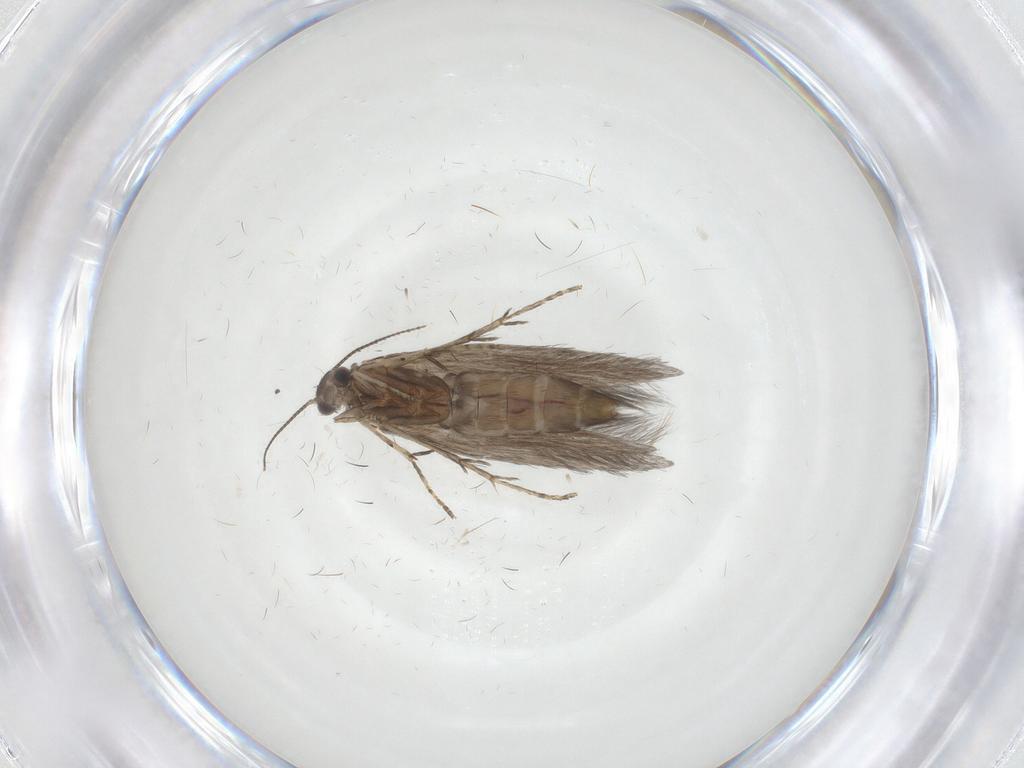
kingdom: Animalia
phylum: Arthropoda
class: Insecta
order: Trichoptera
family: Hydroptilidae
